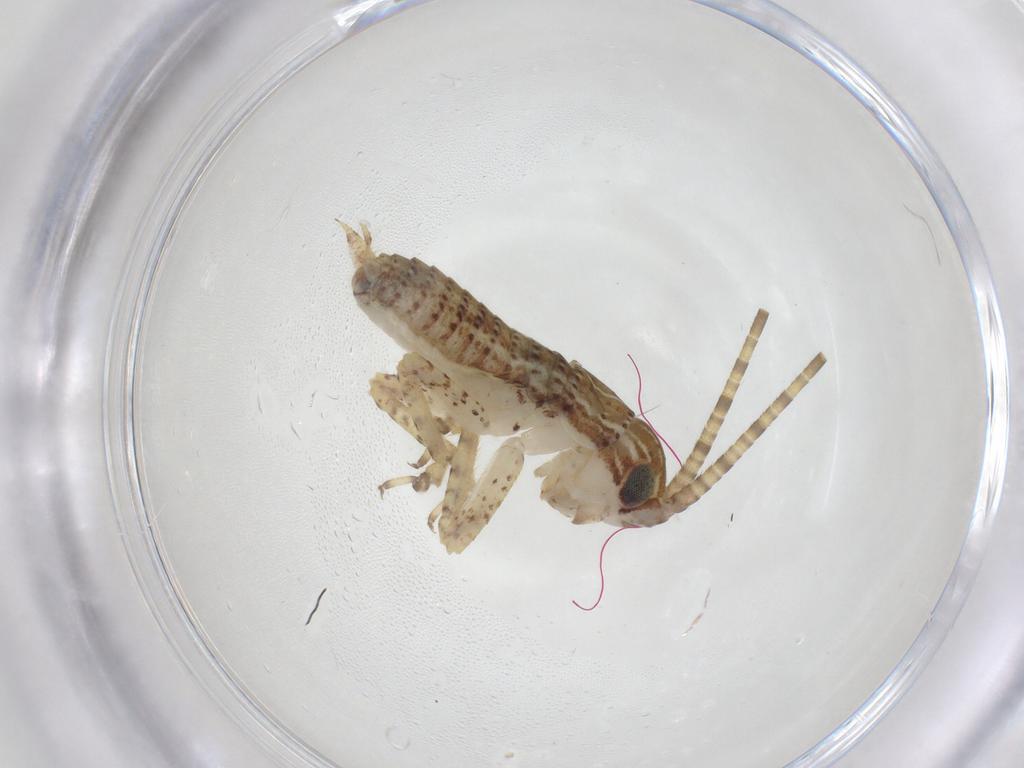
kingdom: Animalia
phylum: Arthropoda
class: Insecta
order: Orthoptera
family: Gryllidae
